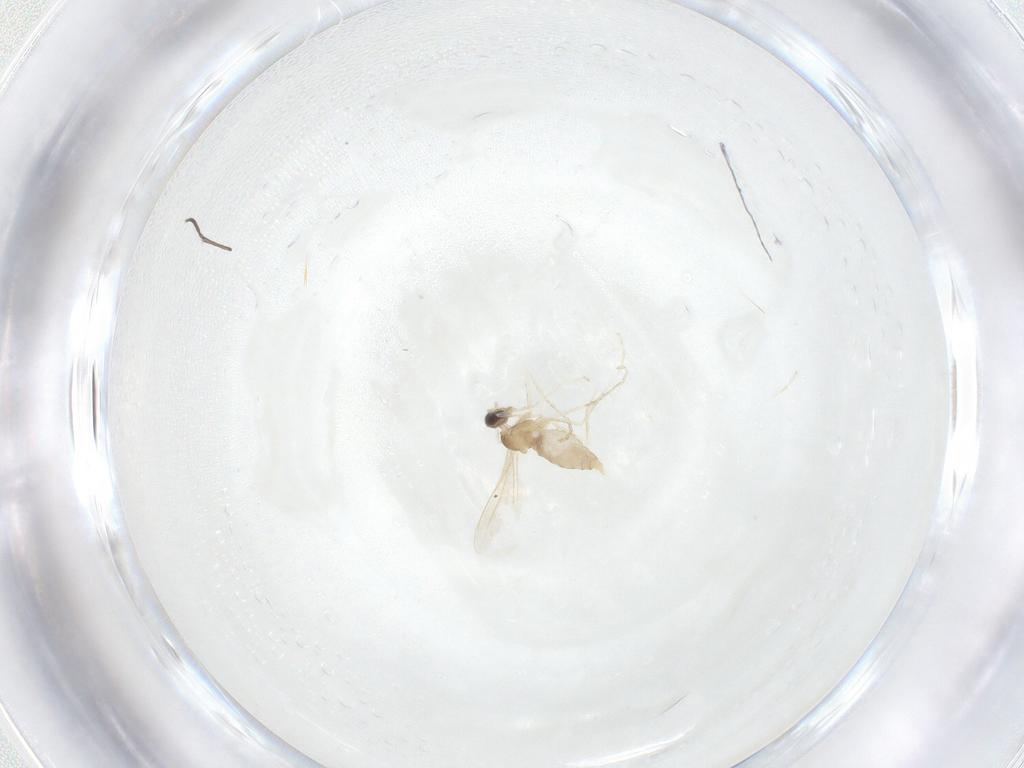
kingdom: Animalia
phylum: Arthropoda
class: Insecta
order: Diptera
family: Cecidomyiidae
